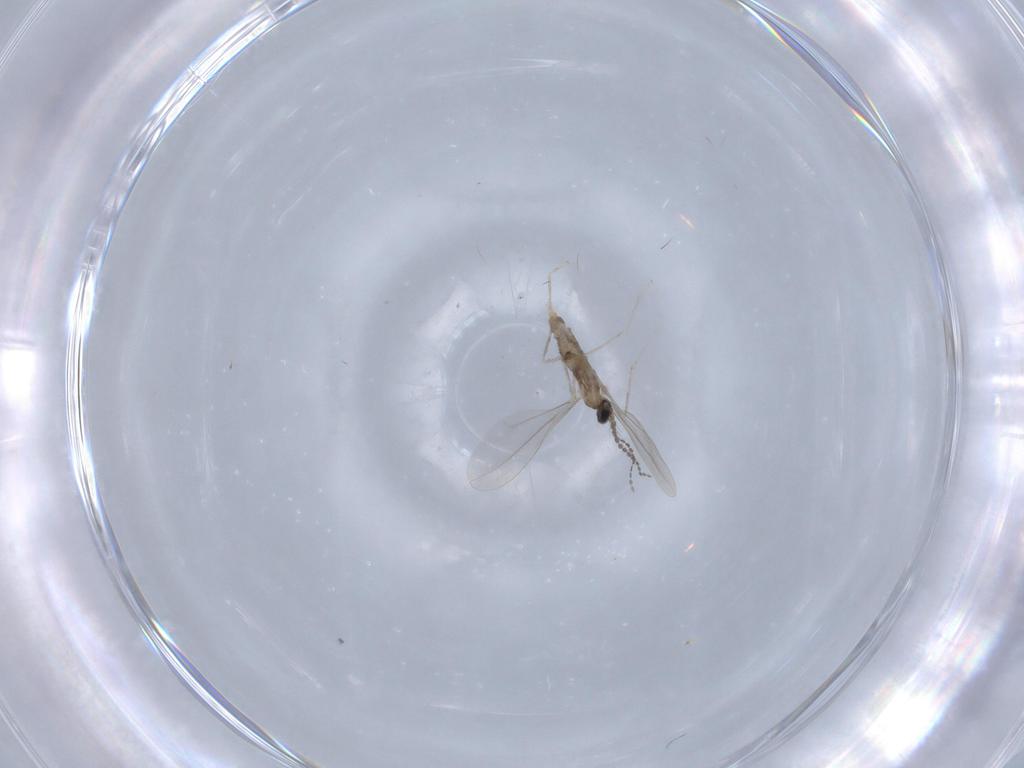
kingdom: Animalia
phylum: Arthropoda
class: Insecta
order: Diptera
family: Cecidomyiidae
